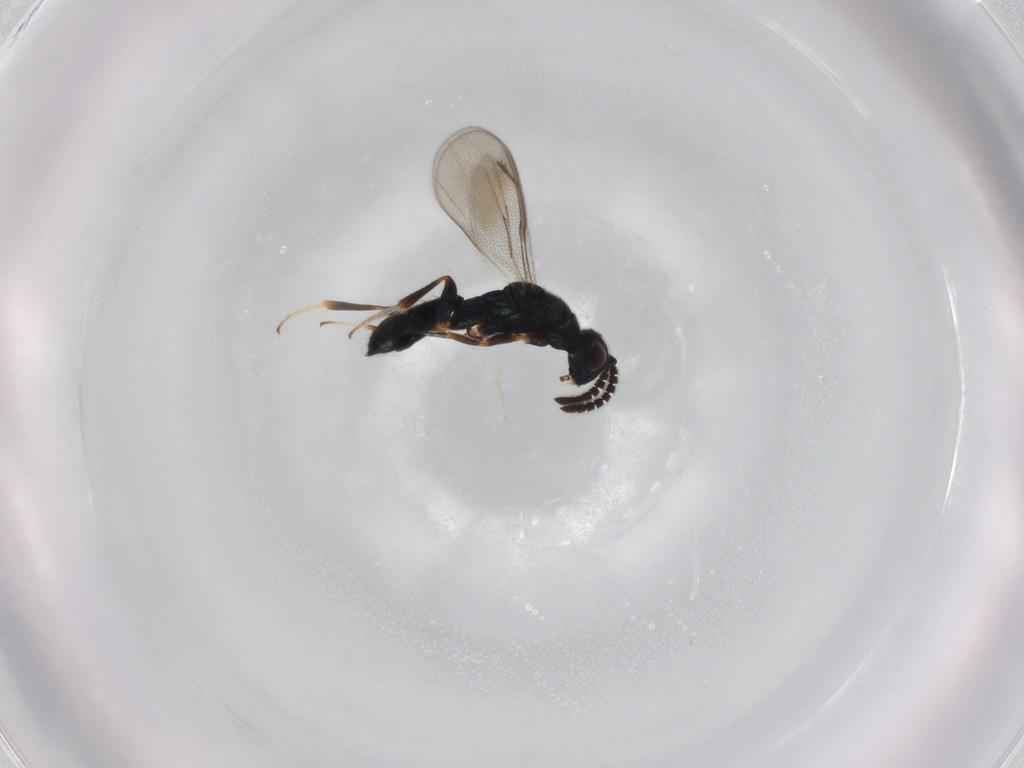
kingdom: Animalia
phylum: Arthropoda
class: Insecta
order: Hymenoptera
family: Cleonyminae
